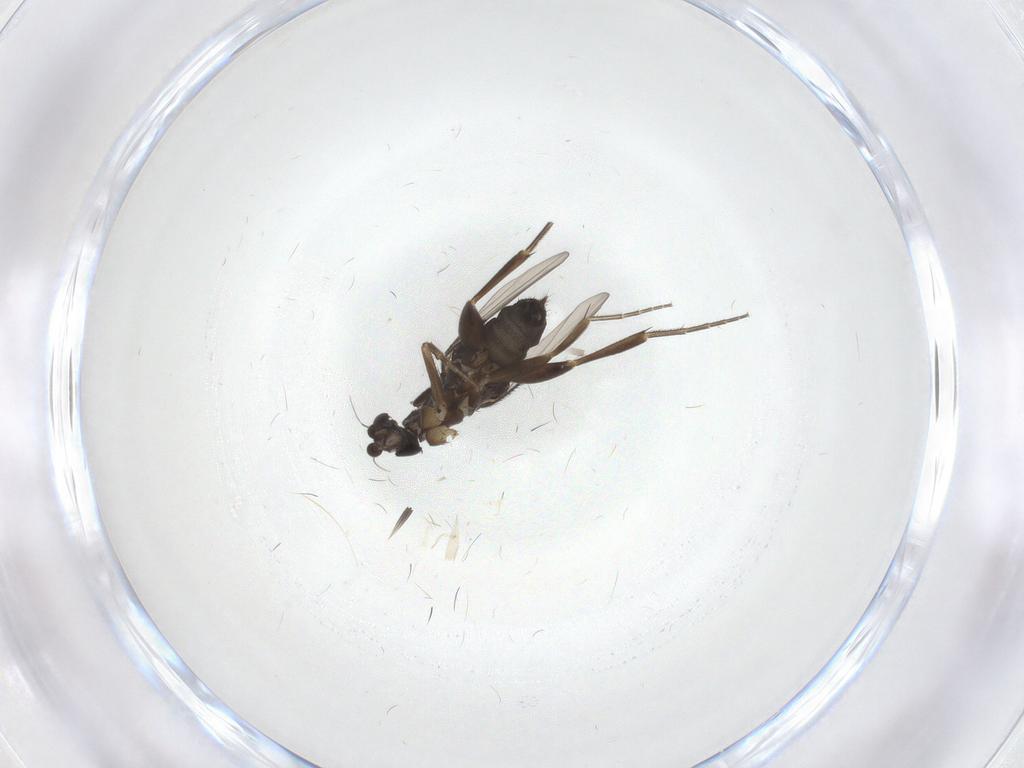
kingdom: Animalia
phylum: Arthropoda
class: Insecta
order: Diptera
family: Phoridae
